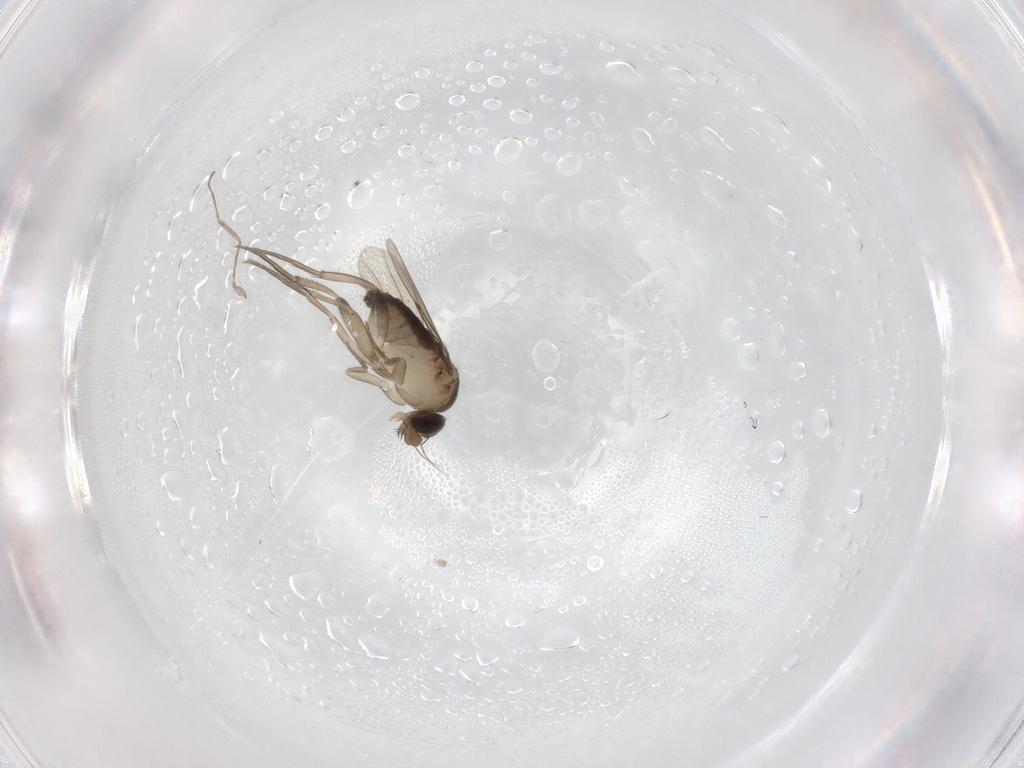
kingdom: Animalia
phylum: Arthropoda
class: Insecta
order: Diptera
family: Phoridae
